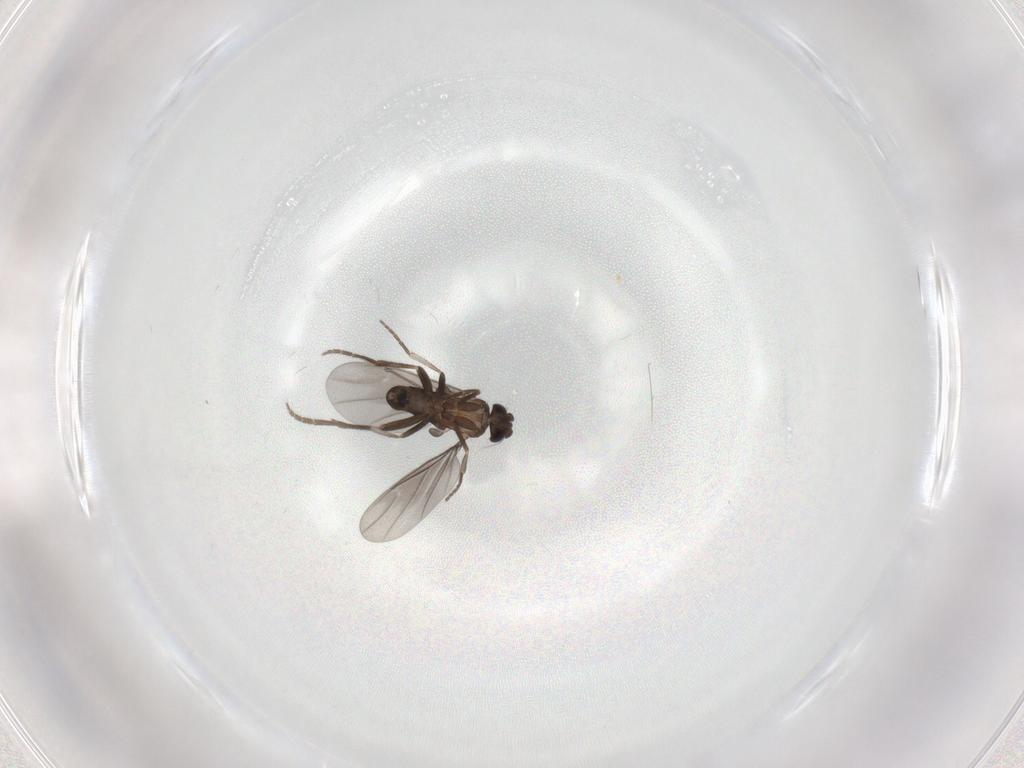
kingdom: Animalia
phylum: Arthropoda
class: Insecta
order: Diptera
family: Phoridae
